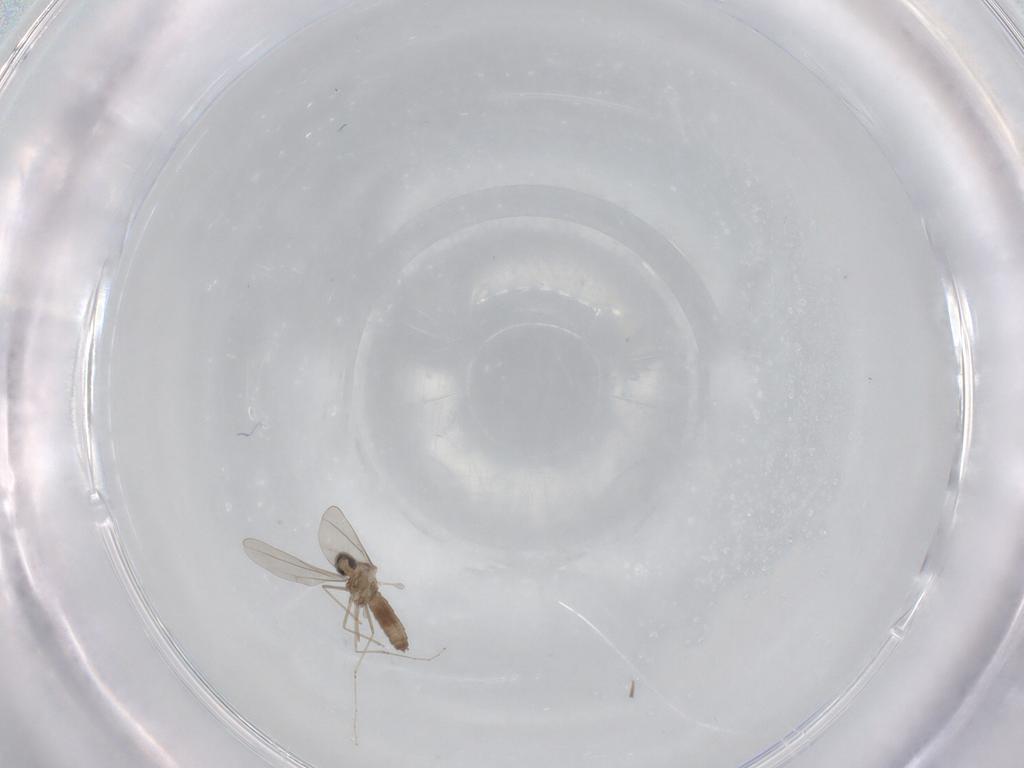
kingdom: Animalia
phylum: Arthropoda
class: Insecta
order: Diptera
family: Cecidomyiidae
